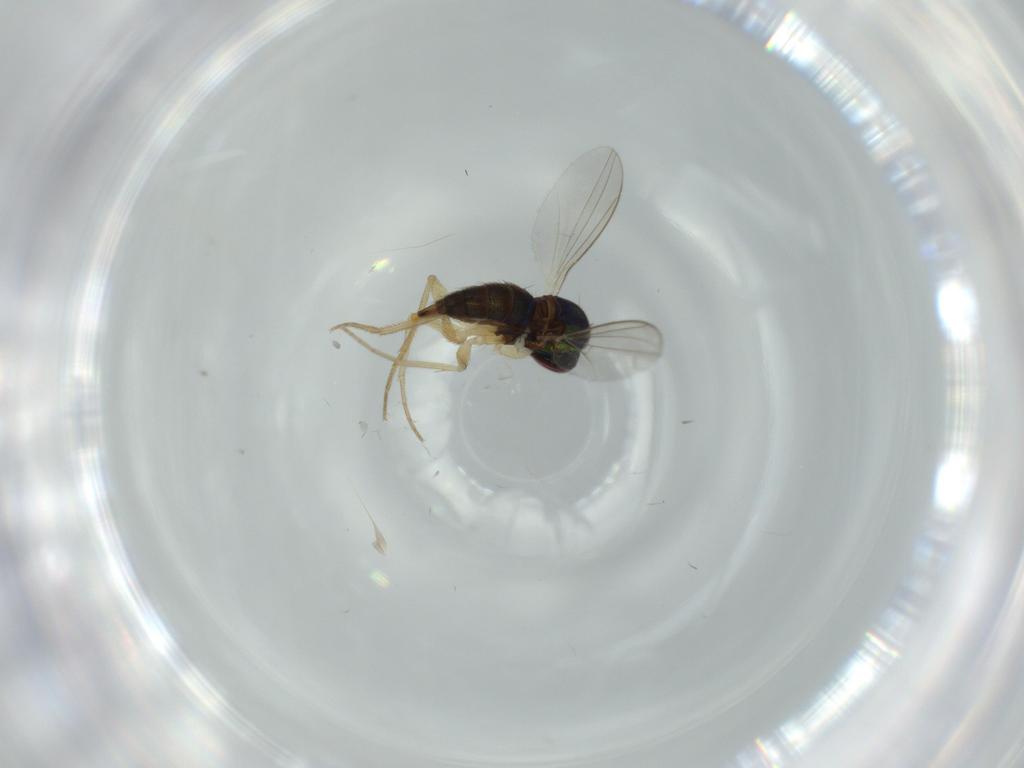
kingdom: Animalia
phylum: Arthropoda
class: Insecta
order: Diptera
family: Dolichopodidae
